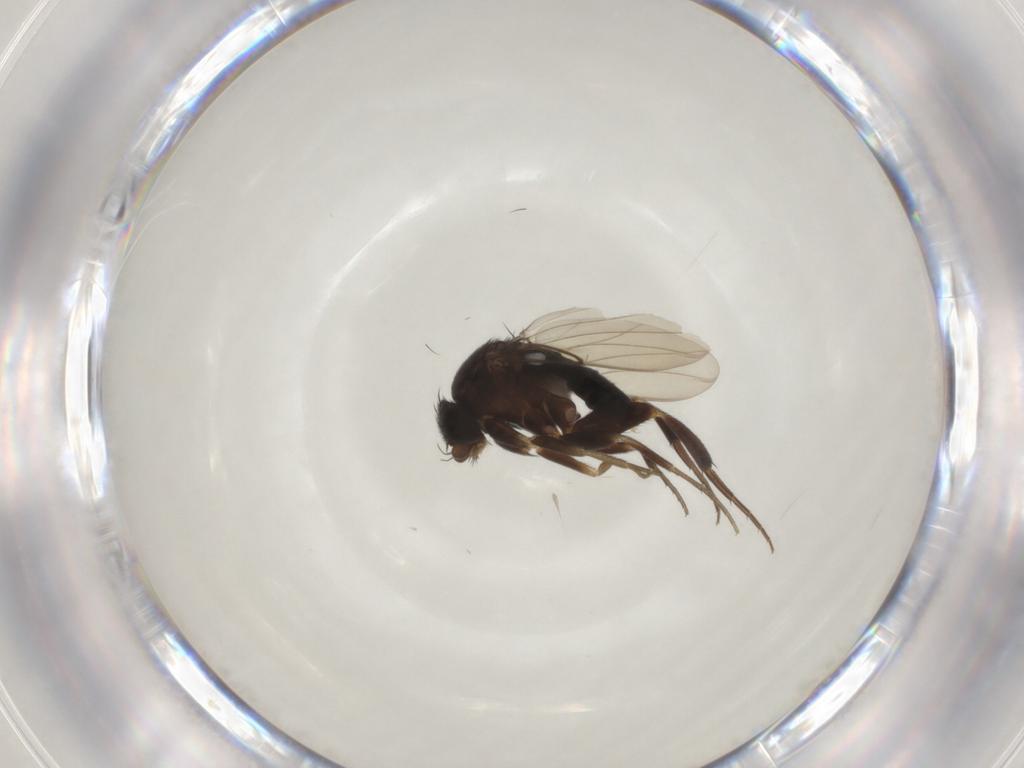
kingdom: Animalia
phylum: Arthropoda
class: Insecta
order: Diptera
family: Phoridae
